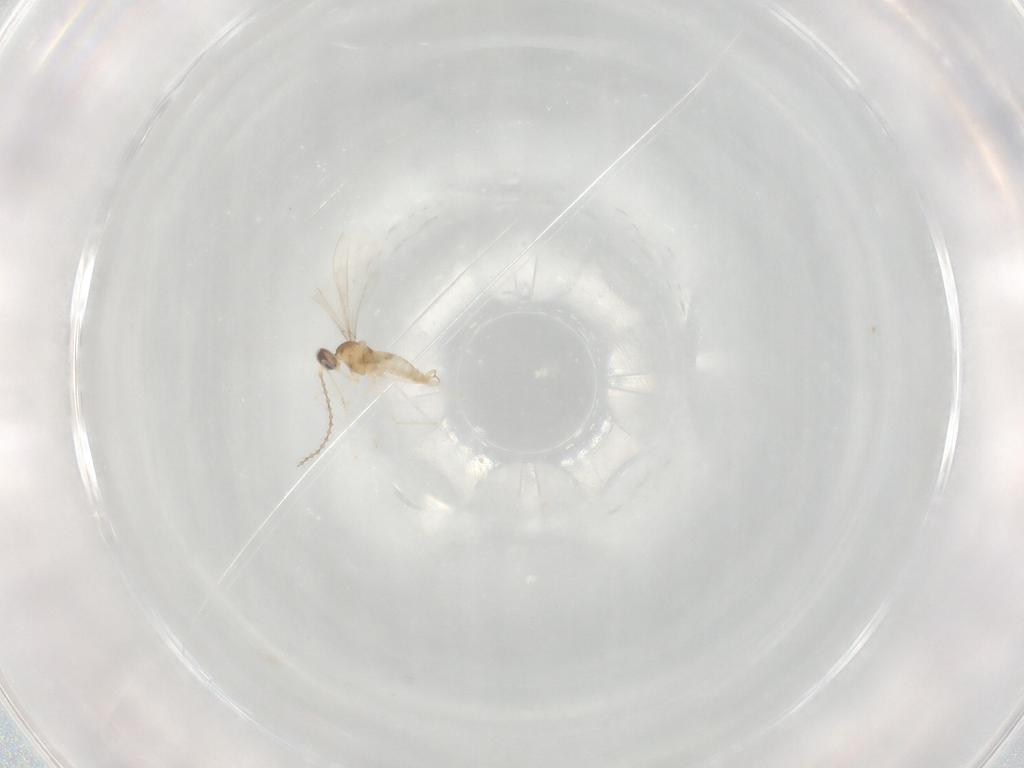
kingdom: Animalia
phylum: Arthropoda
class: Insecta
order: Diptera
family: Cecidomyiidae
